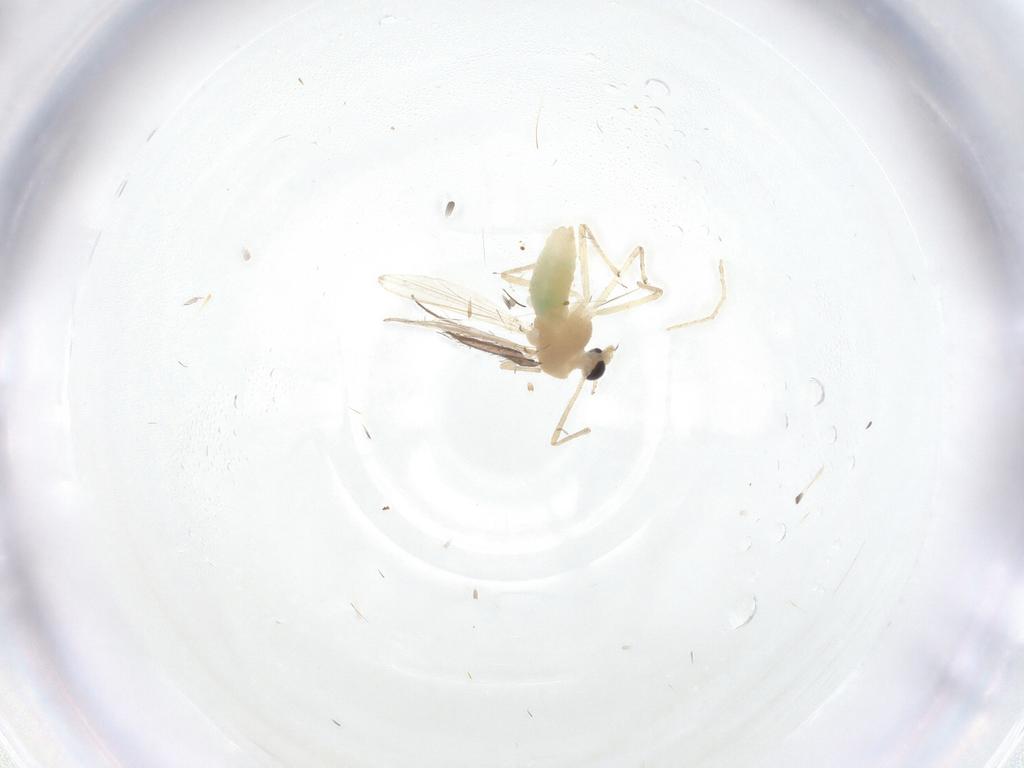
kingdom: Animalia
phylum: Arthropoda
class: Insecta
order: Diptera
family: Limoniidae
